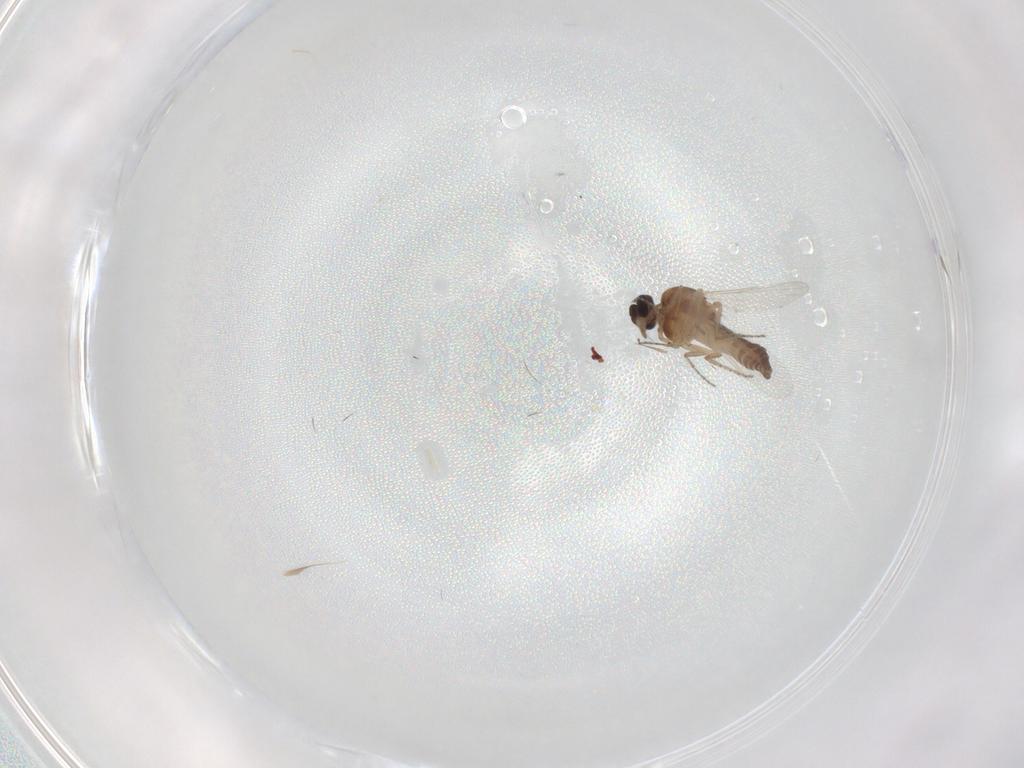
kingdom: Animalia
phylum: Arthropoda
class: Insecta
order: Diptera
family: Ceratopogonidae
